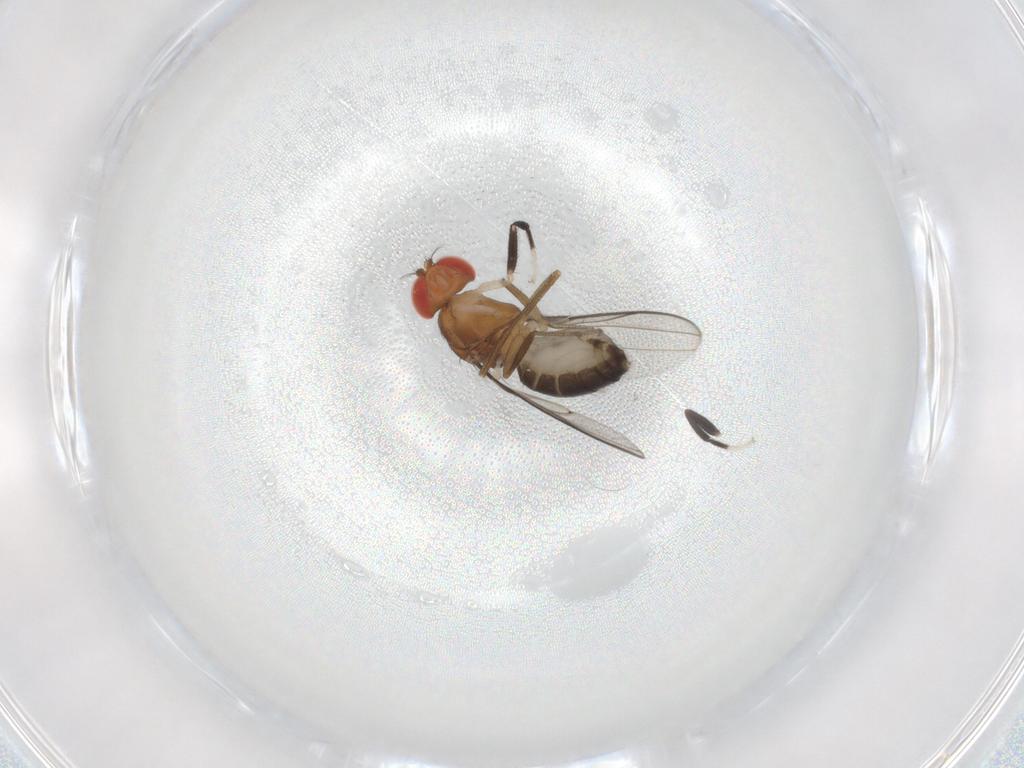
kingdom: Animalia
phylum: Arthropoda
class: Insecta
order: Diptera
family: Drosophilidae
